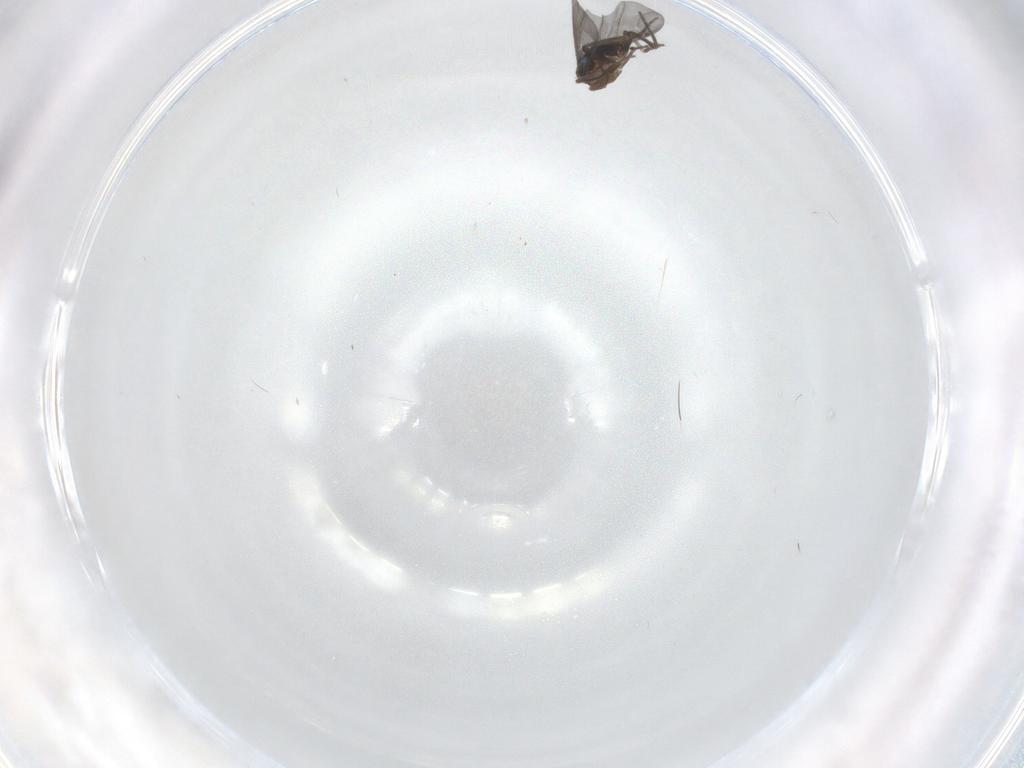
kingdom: Animalia
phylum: Arthropoda
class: Insecta
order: Diptera
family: Phoridae
